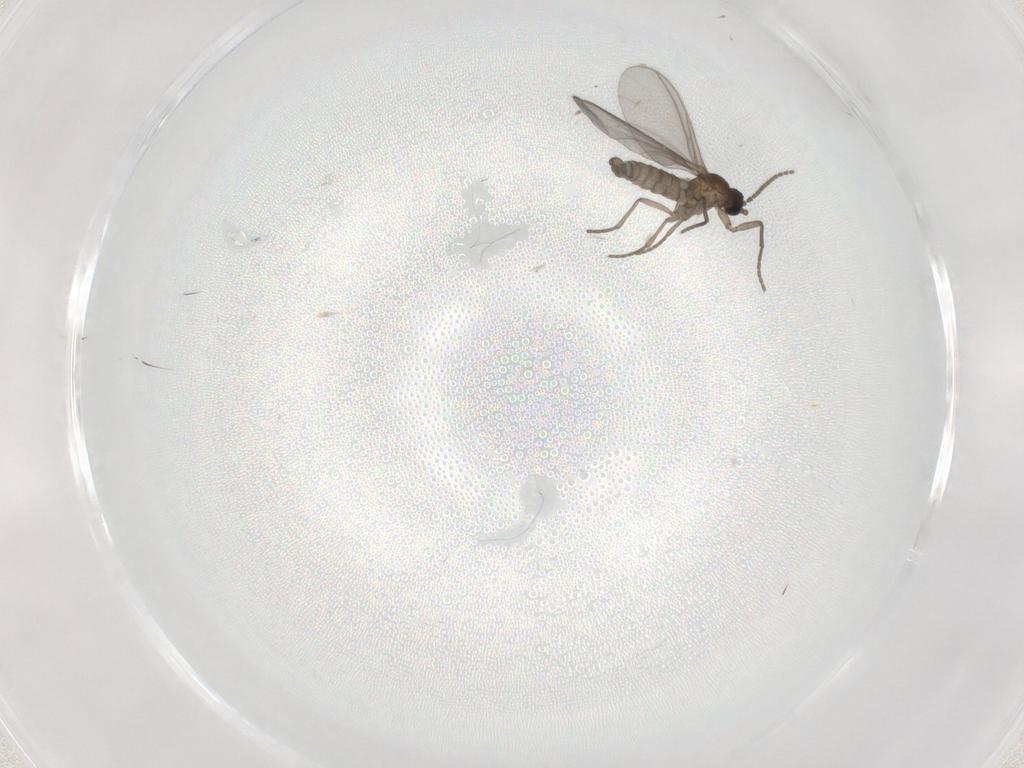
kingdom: Animalia
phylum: Arthropoda
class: Insecta
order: Diptera
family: Sciaridae
